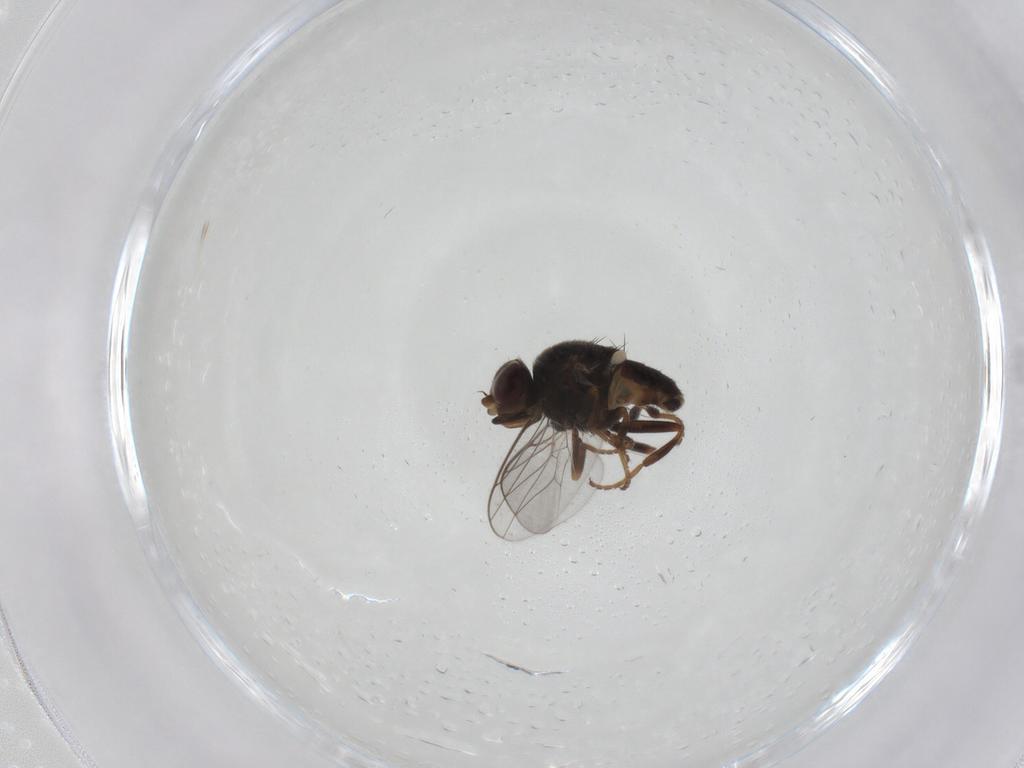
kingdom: Animalia
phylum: Arthropoda
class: Insecta
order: Diptera
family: Chloropidae
